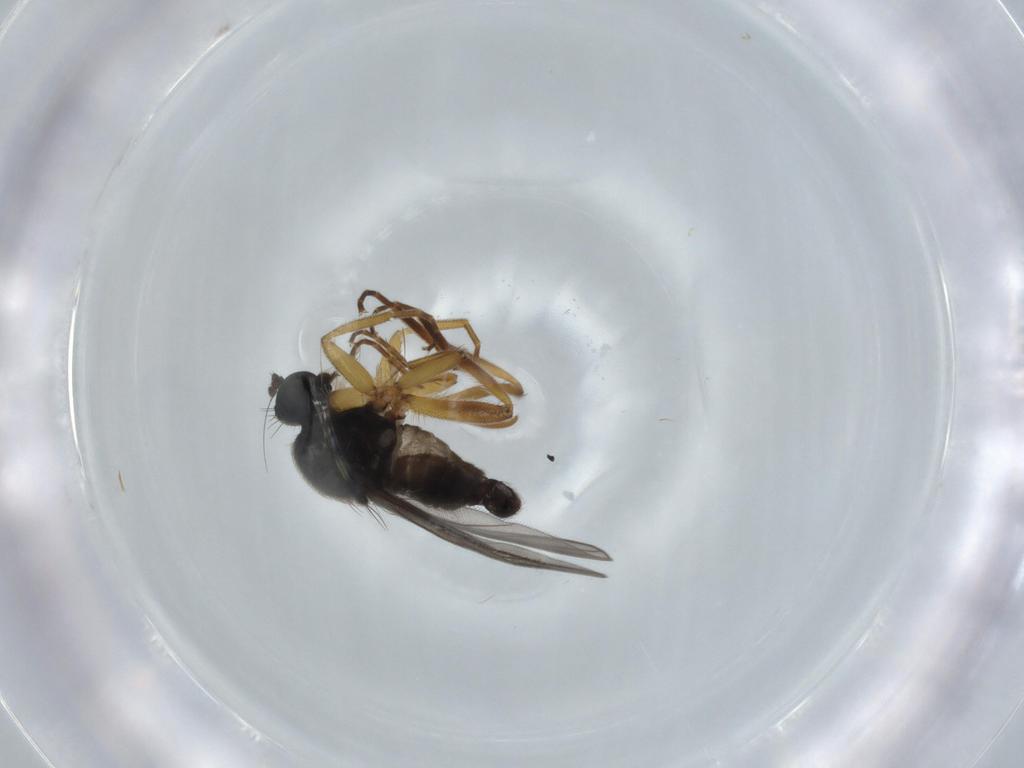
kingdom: Animalia
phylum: Arthropoda
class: Insecta
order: Diptera
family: Hybotidae
